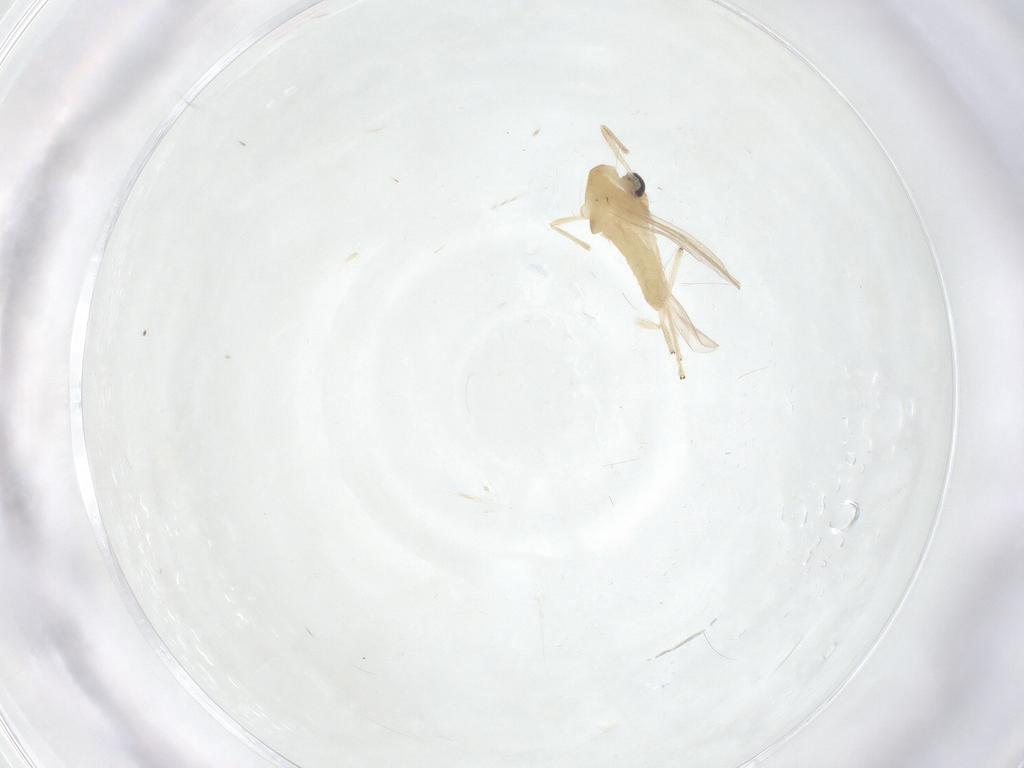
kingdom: Animalia
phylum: Arthropoda
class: Insecta
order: Diptera
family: Chironomidae
